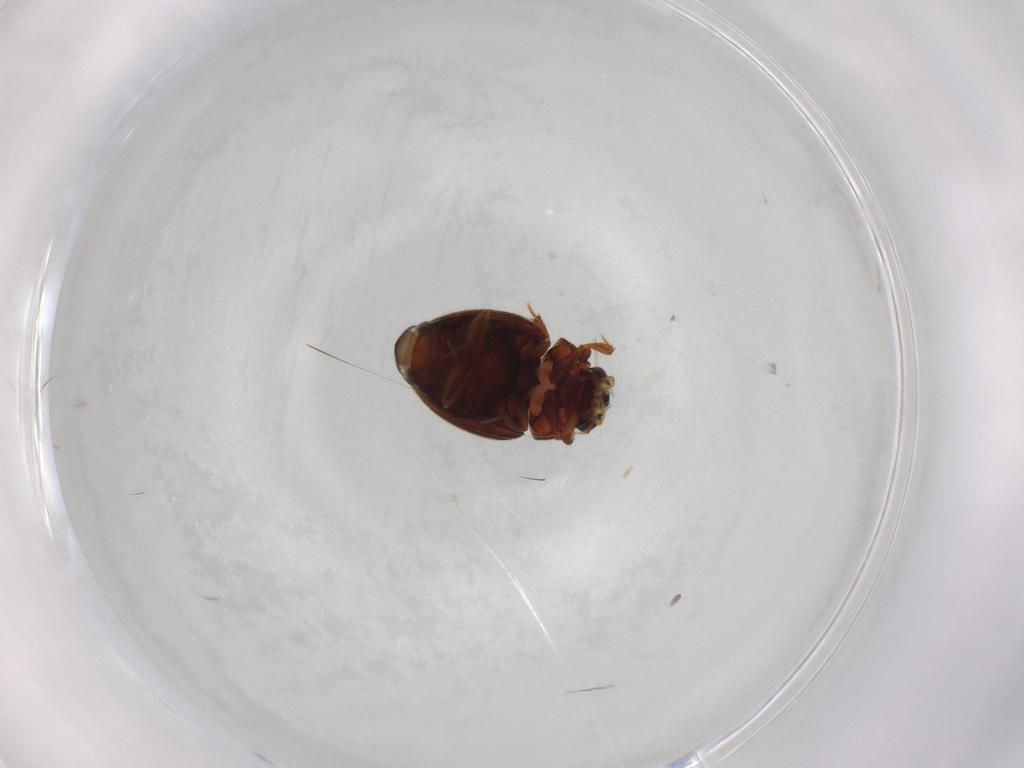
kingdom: Animalia
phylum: Arthropoda
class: Insecta
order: Coleoptera
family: Hydrophilidae
